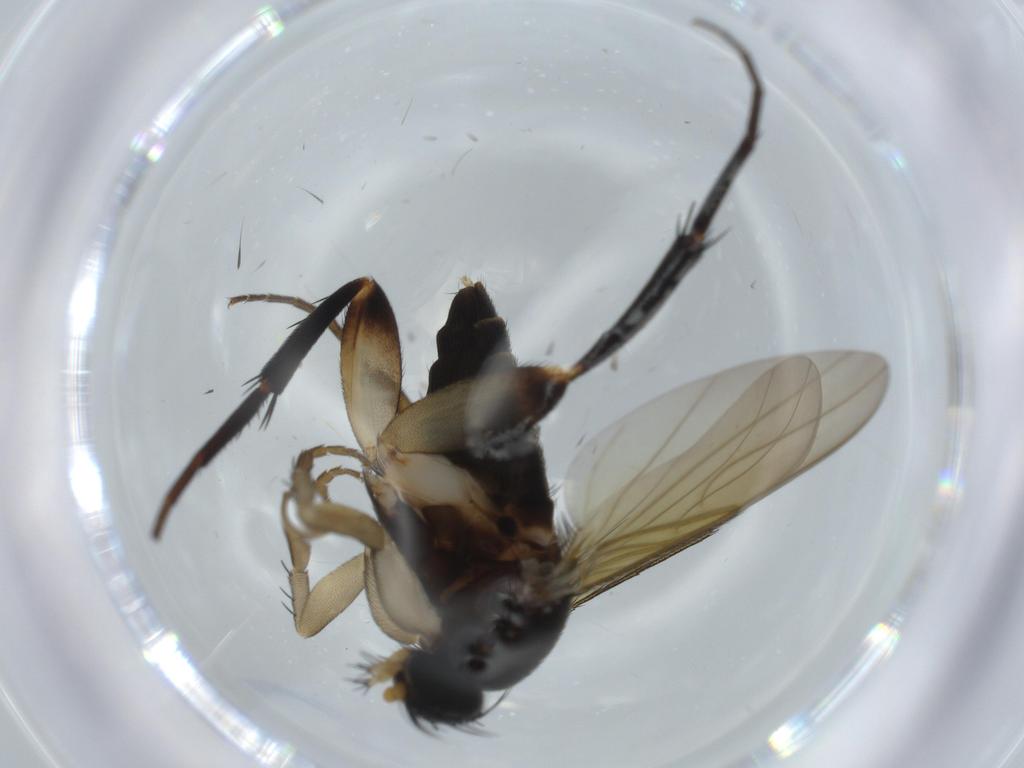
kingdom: Animalia
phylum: Arthropoda
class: Insecta
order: Diptera
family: Phoridae
